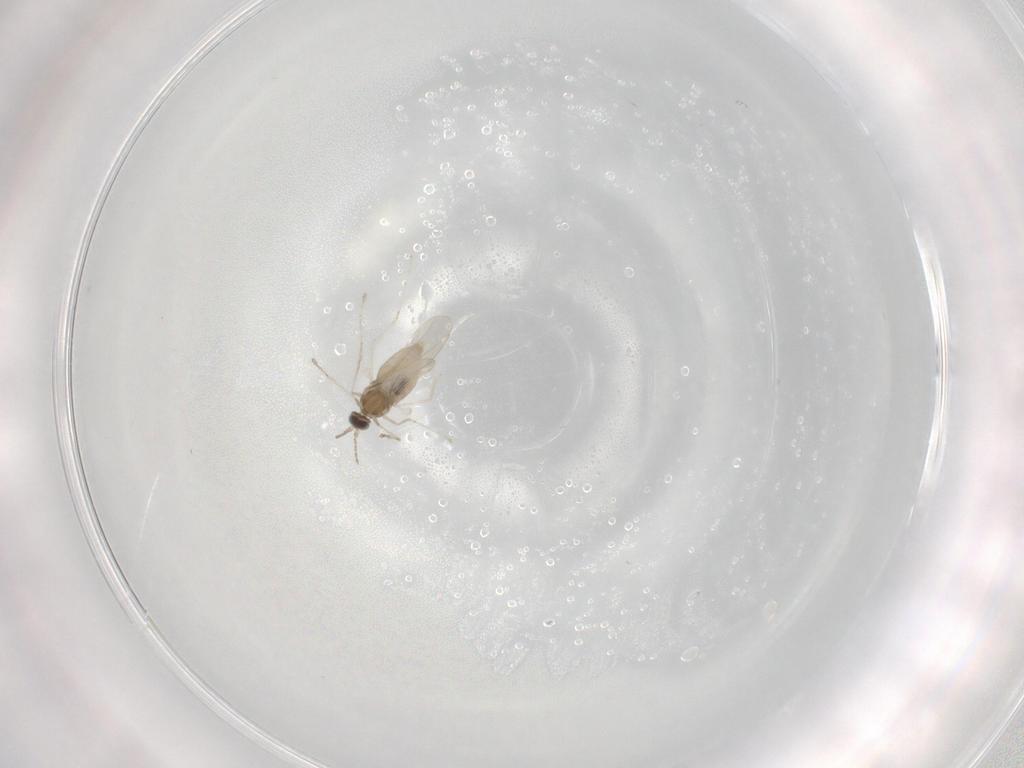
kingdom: Animalia
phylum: Arthropoda
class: Insecta
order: Diptera
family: Cecidomyiidae
